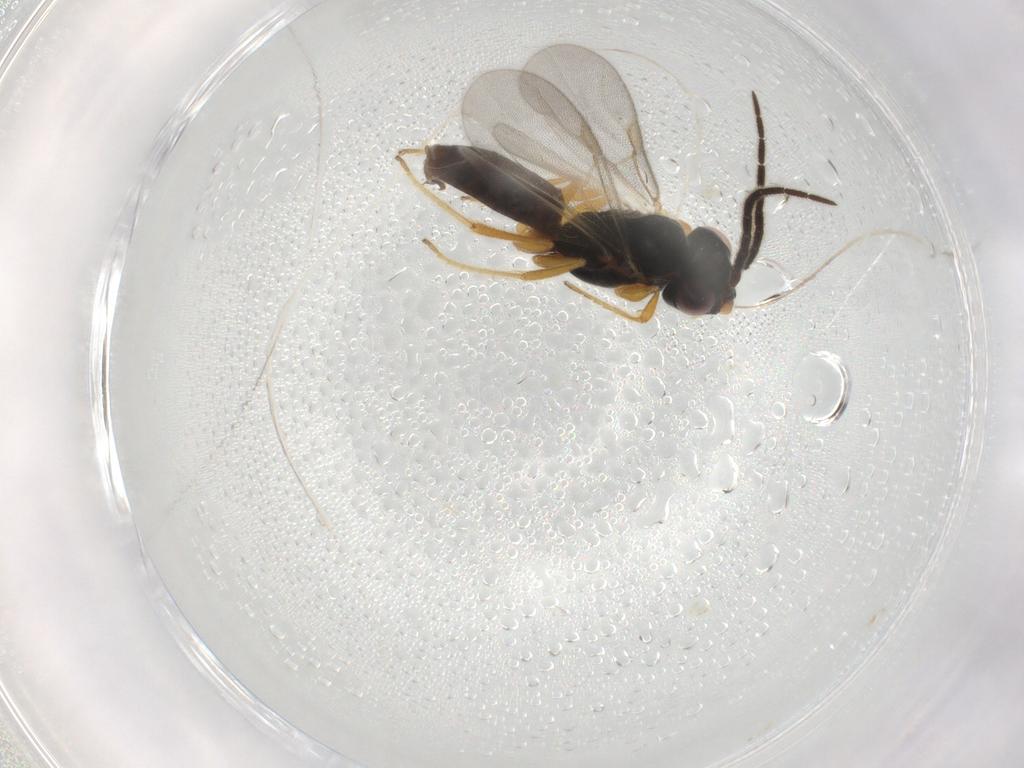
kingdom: Animalia
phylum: Arthropoda
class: Insecta
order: Hymenoptera
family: Dryinidae
